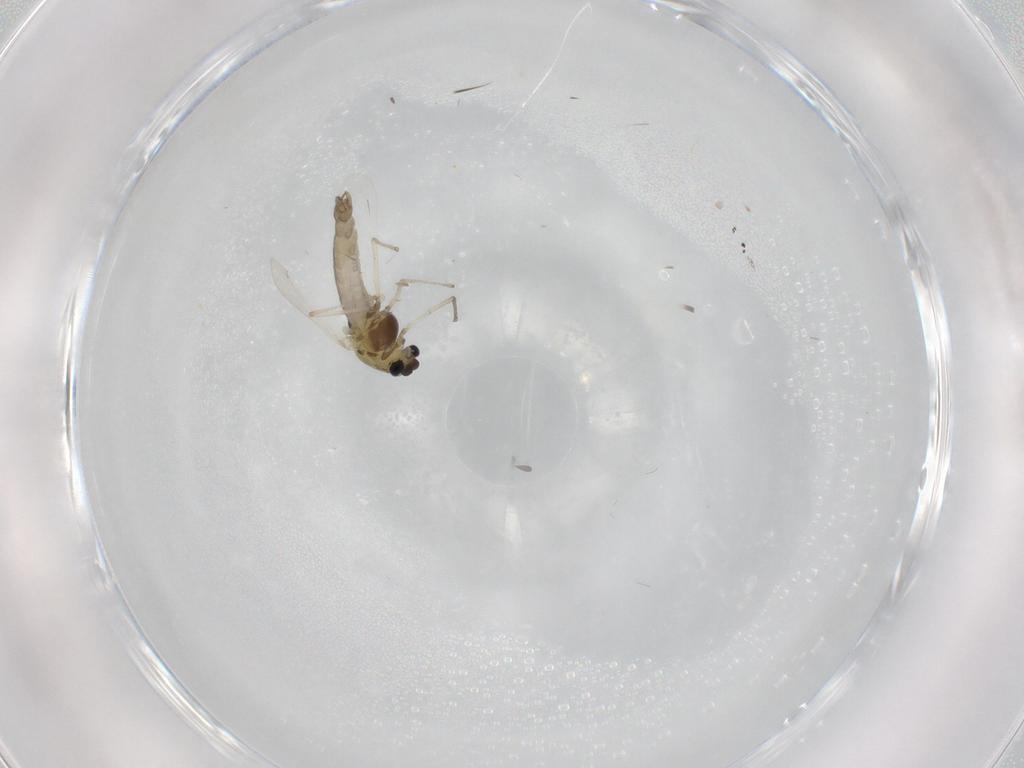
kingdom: Animalia
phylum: Arthropoda
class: Insecta
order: Diptera
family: Chironomidae
